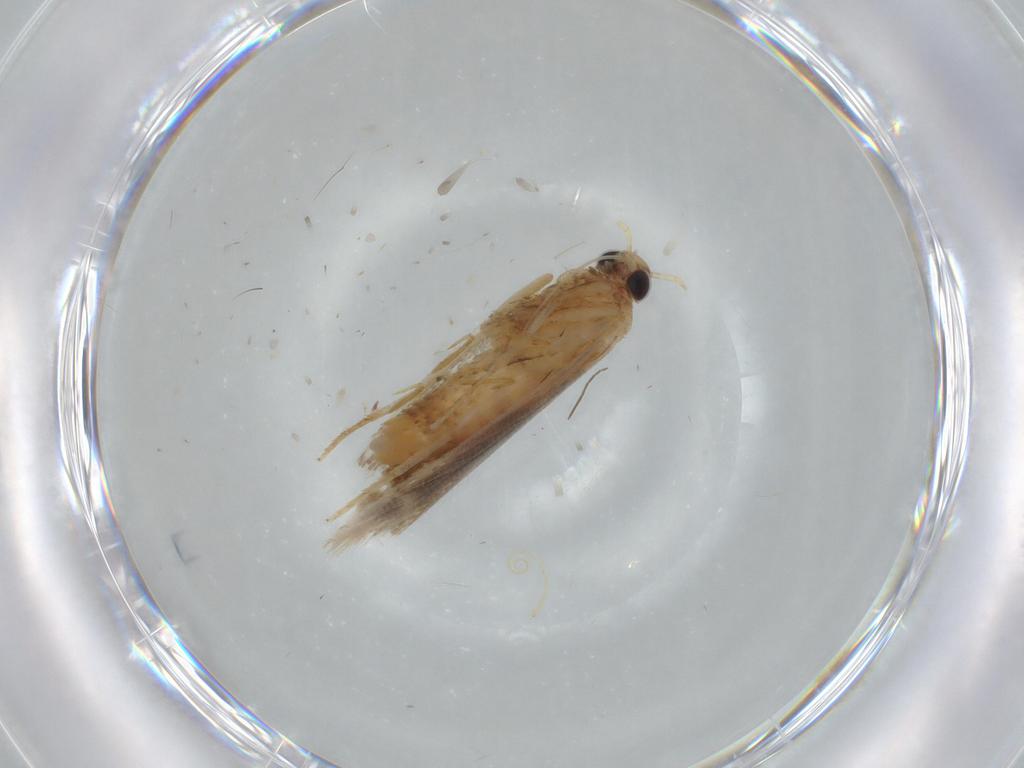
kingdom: Animalia
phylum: Arthropoda
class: Insecta
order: Lepidoptera
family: Gelechiidae
